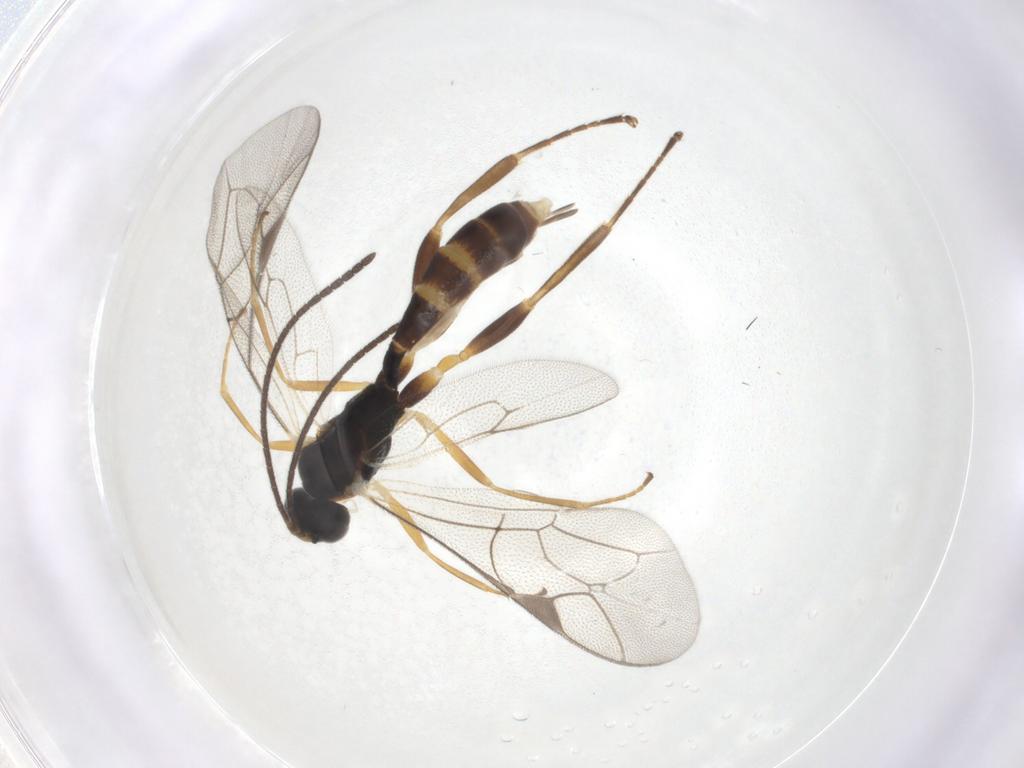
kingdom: Animalia
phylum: Arthropoda
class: Insecta
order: Hymenoptera
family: Ichneumonidae
